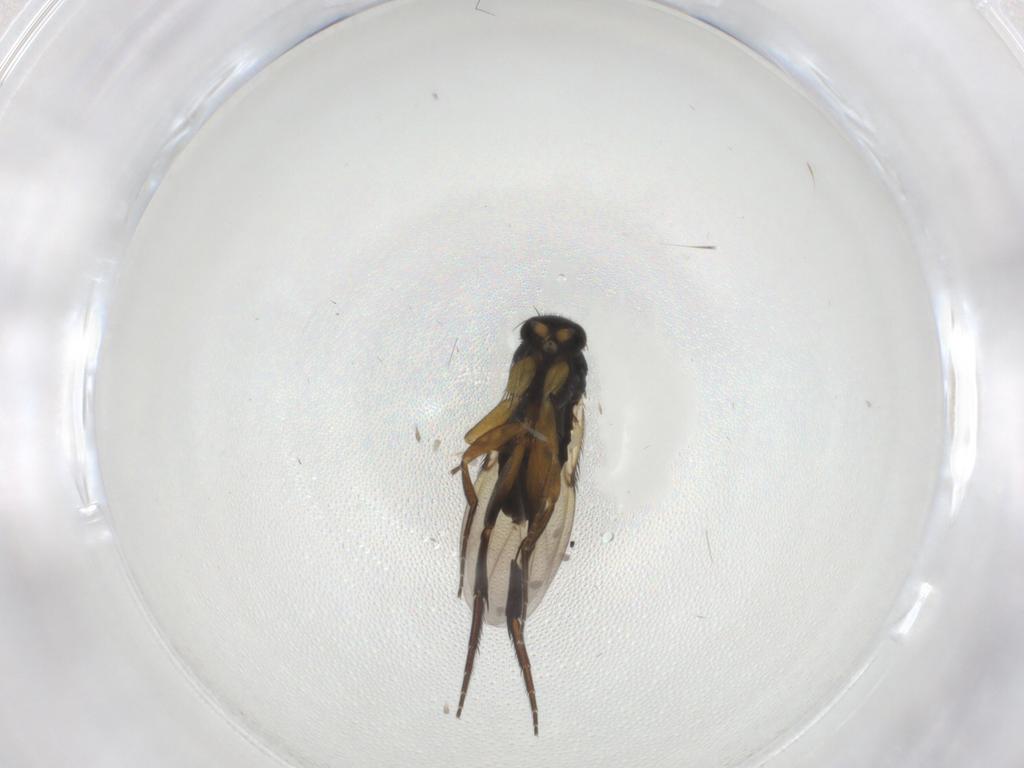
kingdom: Animalia
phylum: Arthropoda
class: Insecta
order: Diptera
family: Phoridae
